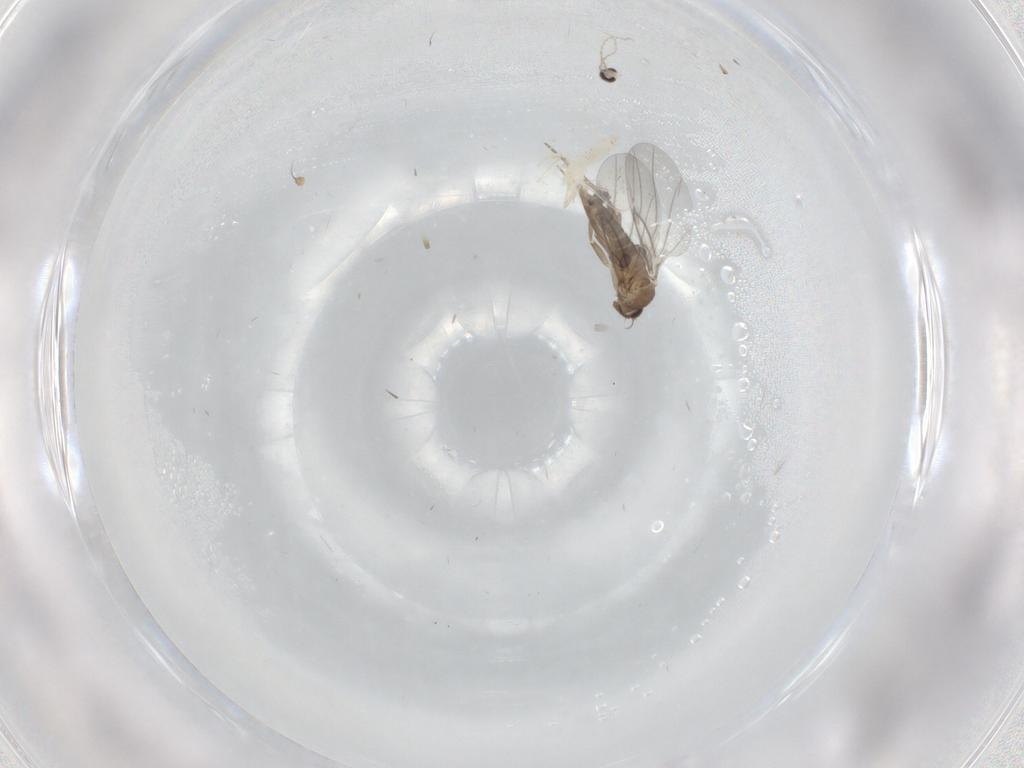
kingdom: Animalia
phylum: Arthropoda
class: Insecta
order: Diptera
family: Cecidomyiidae
